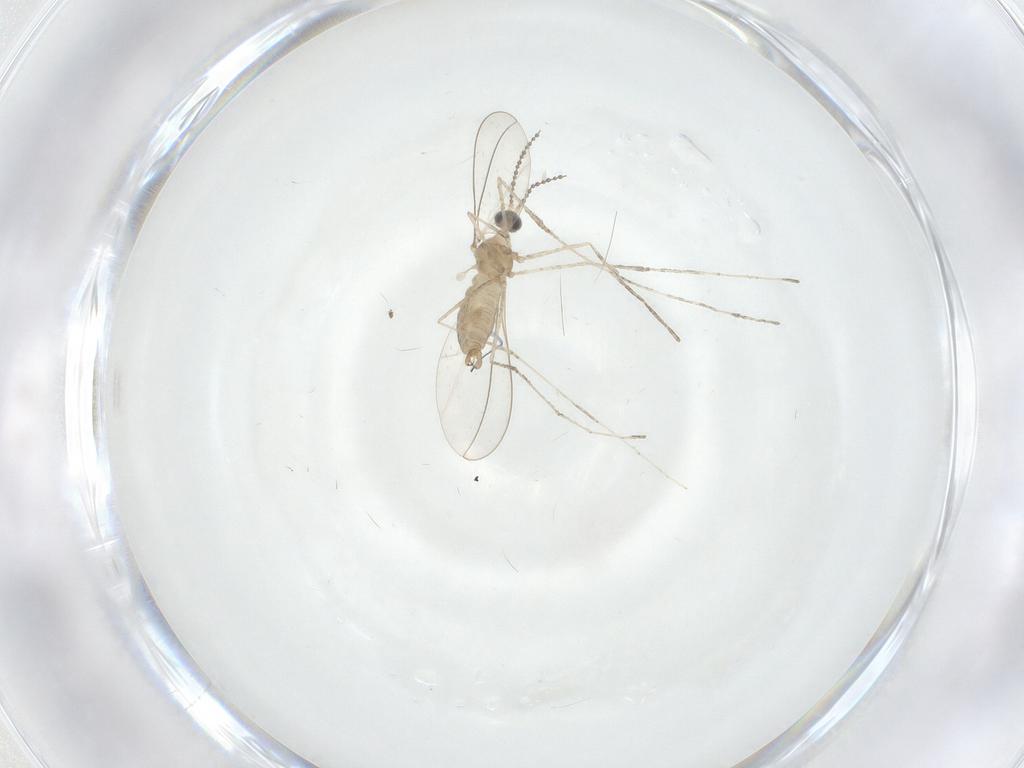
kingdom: Animalia
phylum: Arthropoda
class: Insecta
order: Diptera
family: Cecidomyiidae
